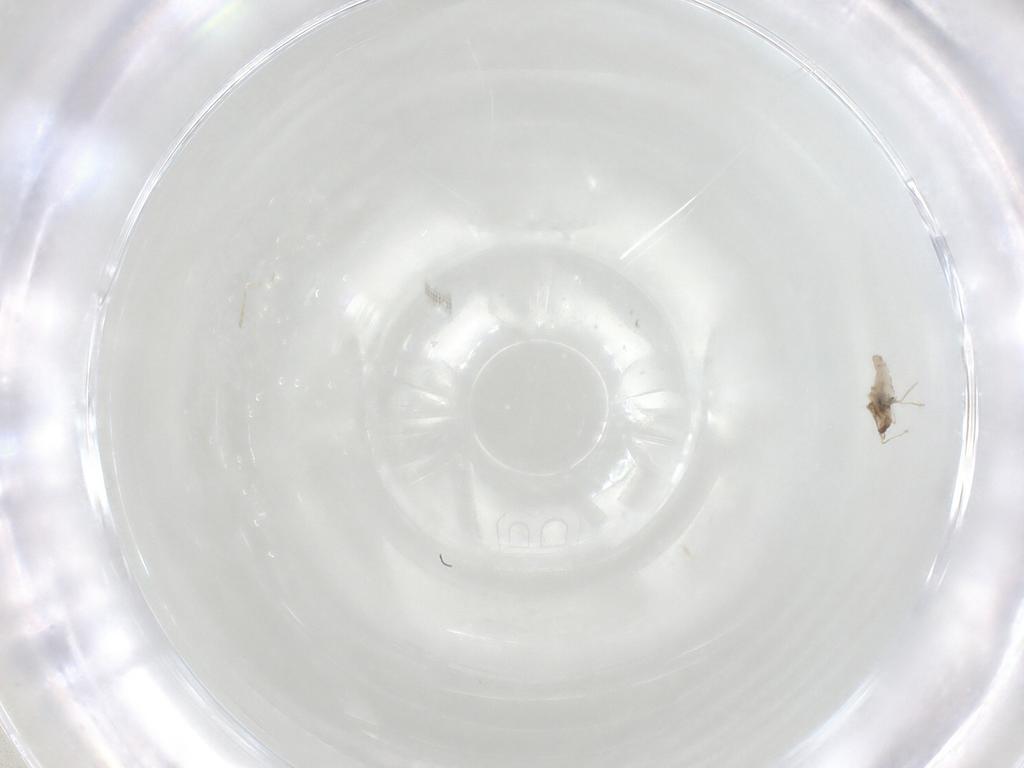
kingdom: Animalia
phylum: Arthropoda
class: Insecta
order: Diptera
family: Cecidomyiidae
